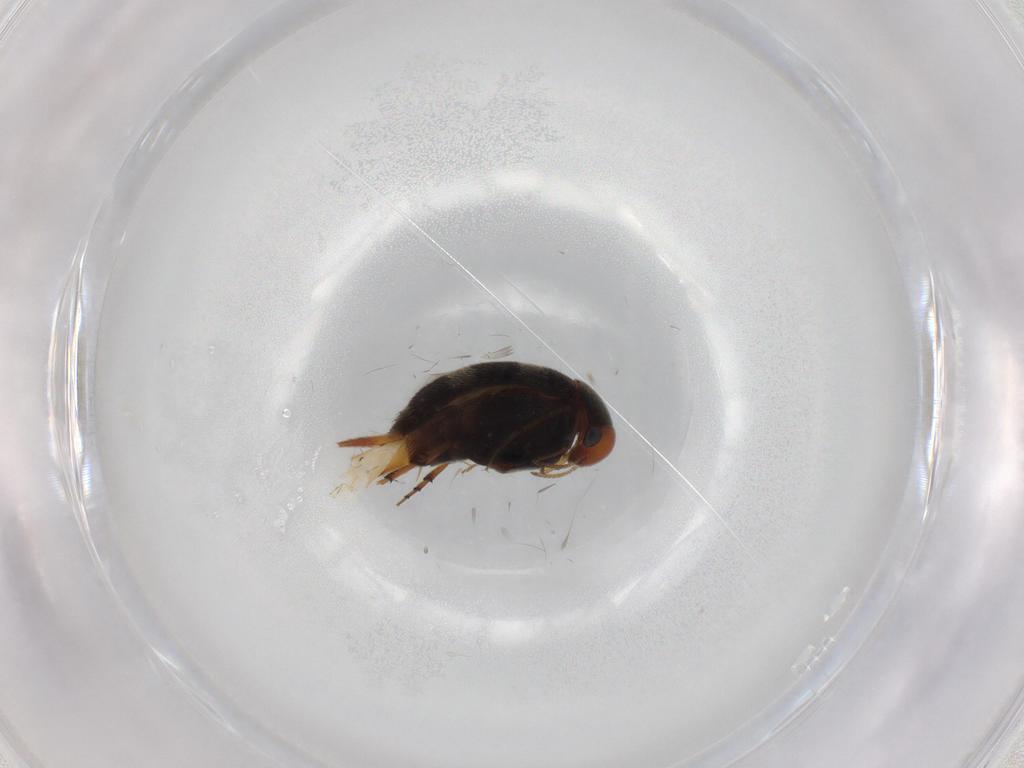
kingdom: Animalia
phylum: Arthropoda
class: Insecta
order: Coleoptera
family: Mordellidae
